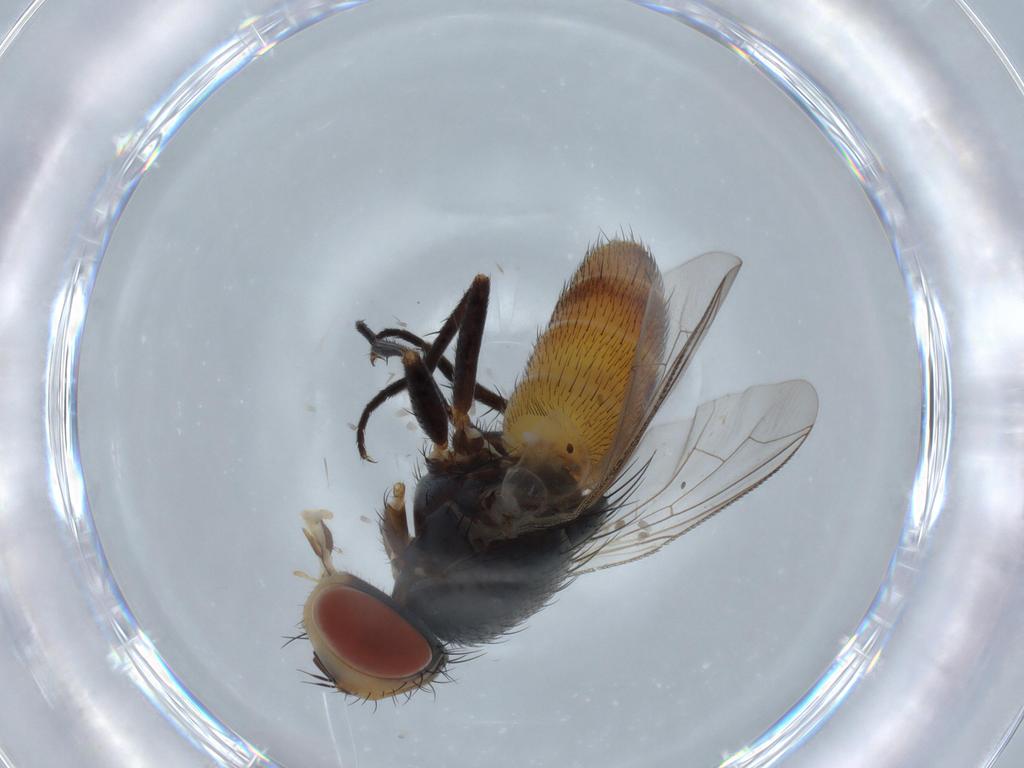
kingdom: Animalia
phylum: Arthropoda
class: Insecta
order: Diptera
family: Sarcophagidae
